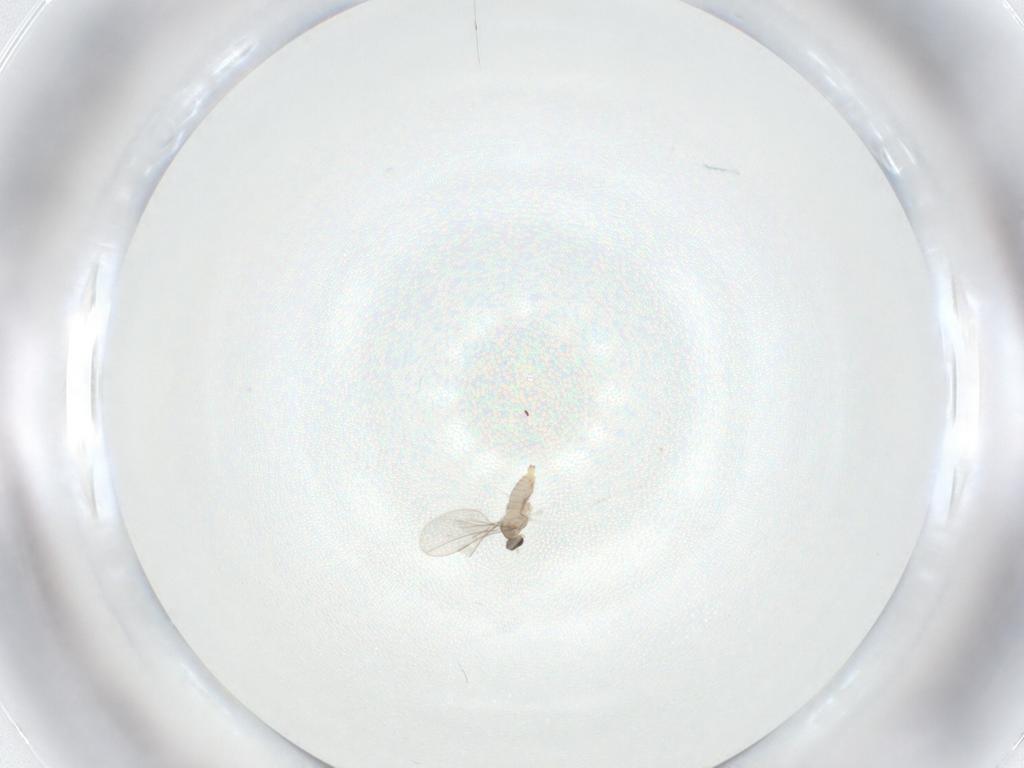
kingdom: Animalia
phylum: Arthropoda
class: Insecta
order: Diptera
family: Cecidomyiidae
